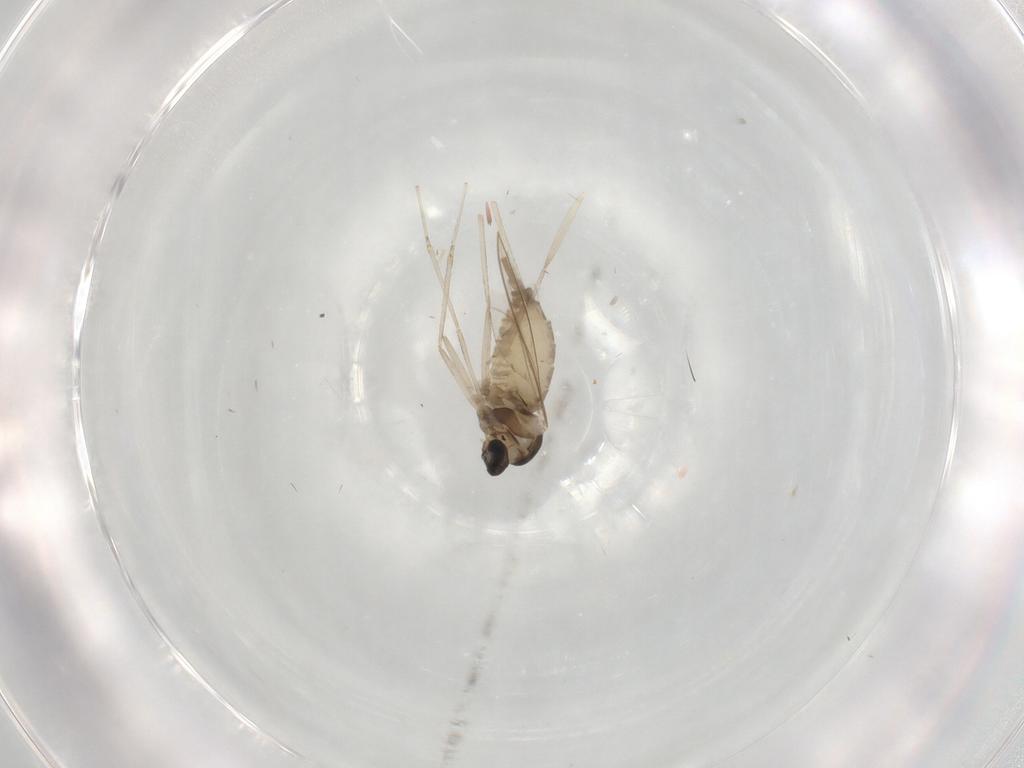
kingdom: Animalia
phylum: Arthropoda
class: Insecta
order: Diptera
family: Cecidomyiidae
